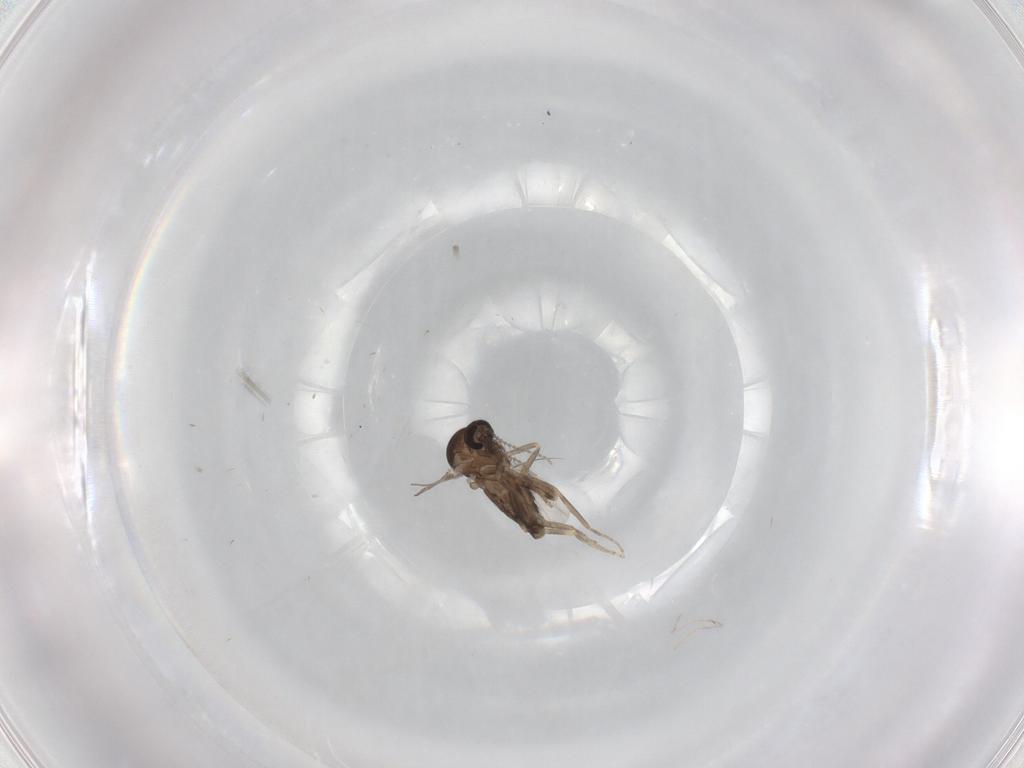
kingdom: Animalia
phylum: Arthropoda
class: Insecta
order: Diptera
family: Ceratopogonidae
